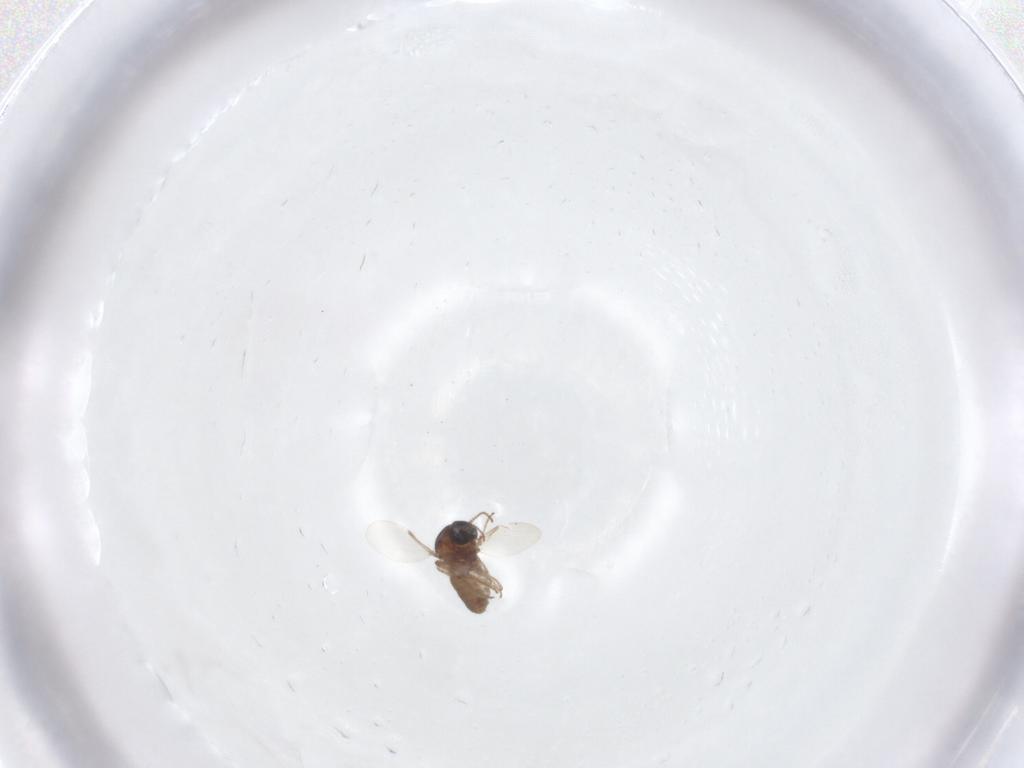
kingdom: Animalia
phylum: Arthropoda
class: Insecta
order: Diptera
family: Ceratopogonidae
